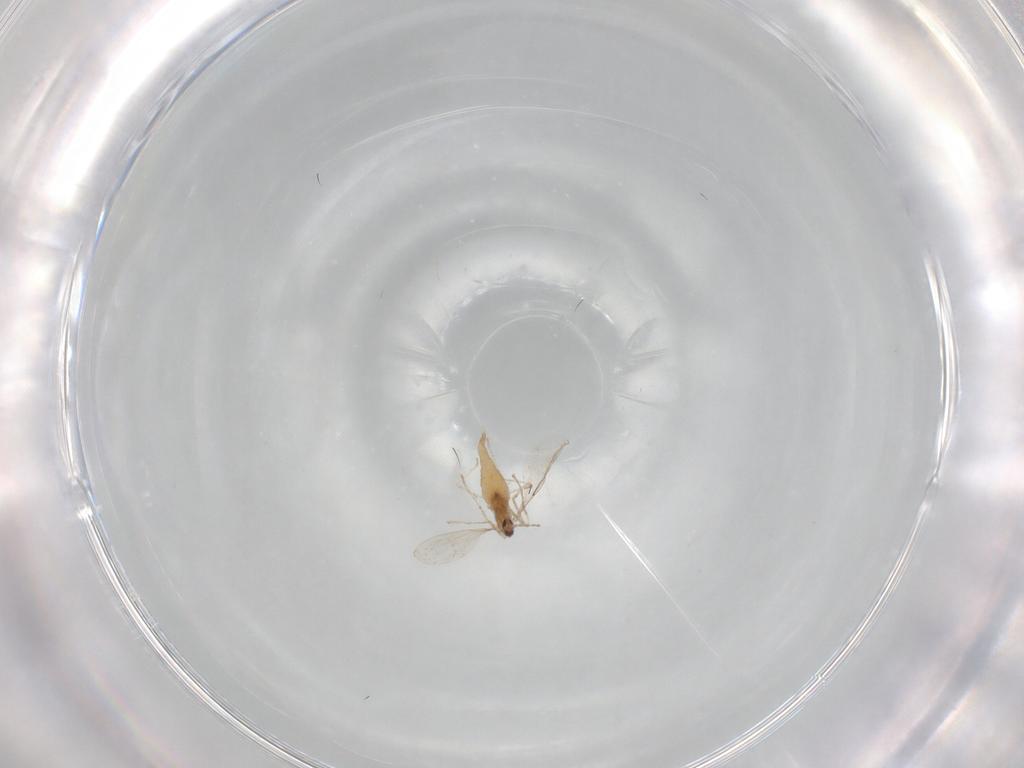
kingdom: Animalia
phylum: Arthropoda
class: Insecta
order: Diptera
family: Cecidomyiidae
